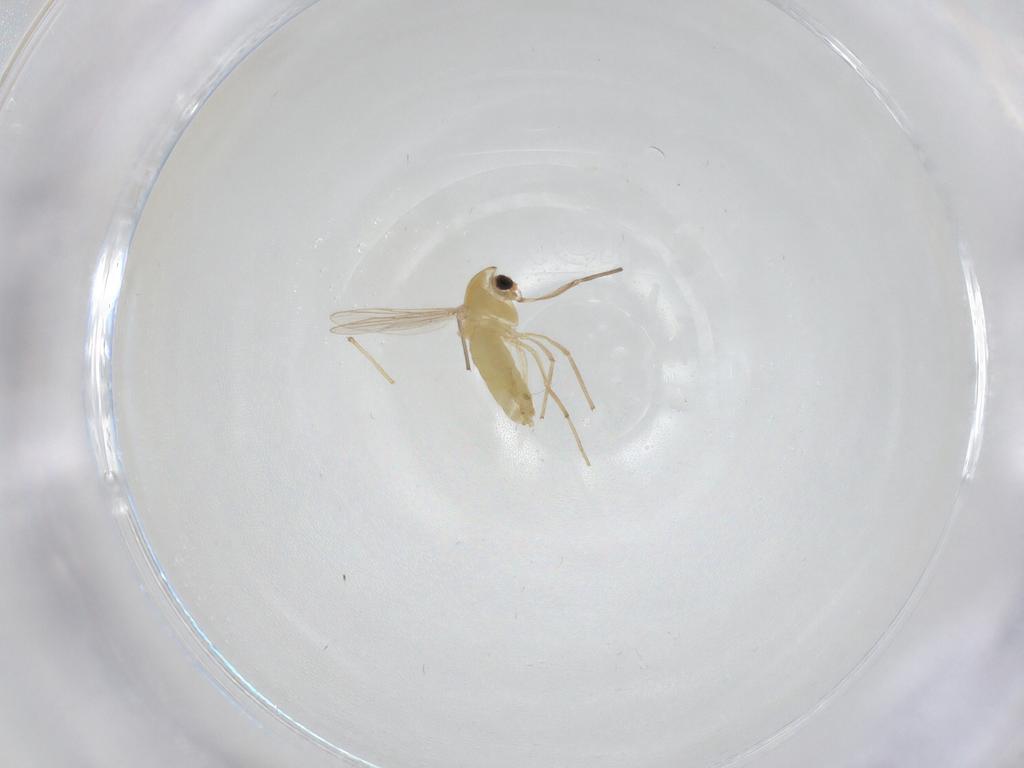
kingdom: Animalia
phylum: Arthropoda
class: Insecta
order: Diptera
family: Chironomidae
